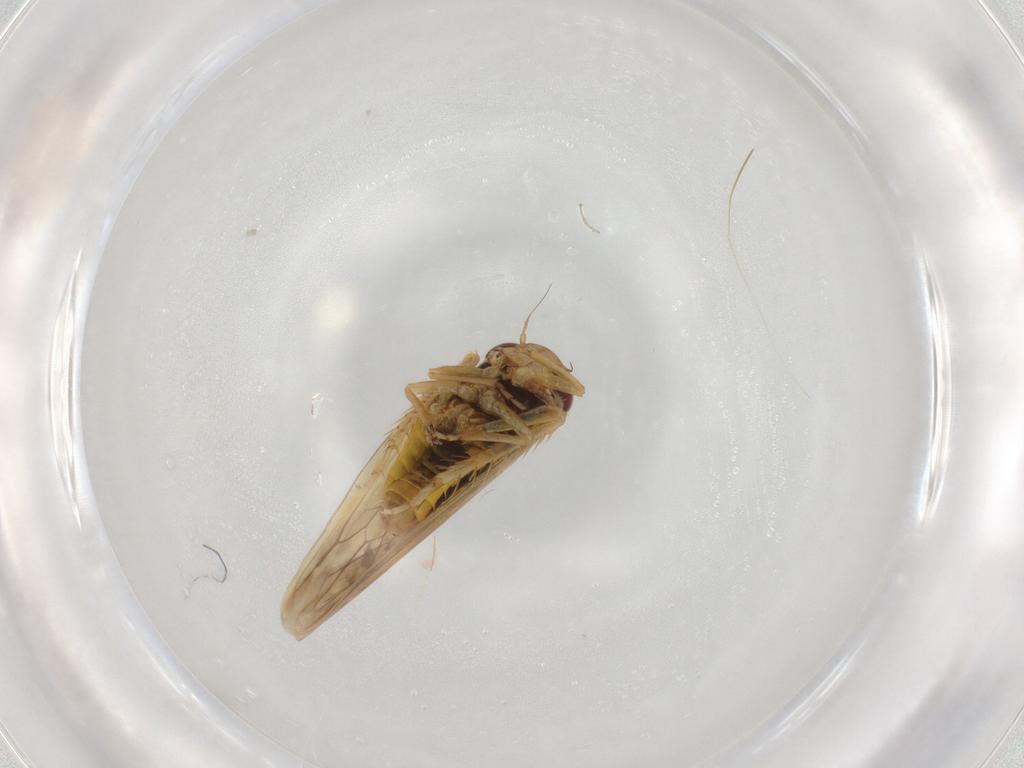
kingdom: Animalia
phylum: Arthropoda
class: Insecta
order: Hemiptera
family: Cicadellidae
